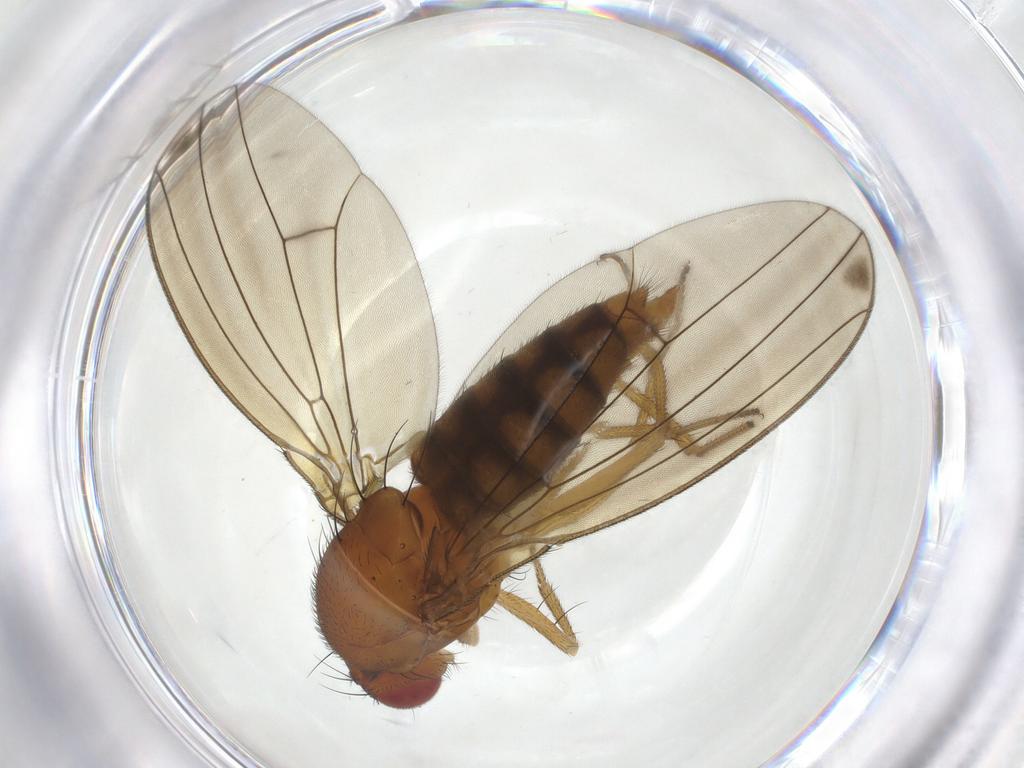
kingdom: Animalia
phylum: Arthropoda
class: Insecta
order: Diptera
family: Drosophilidae
